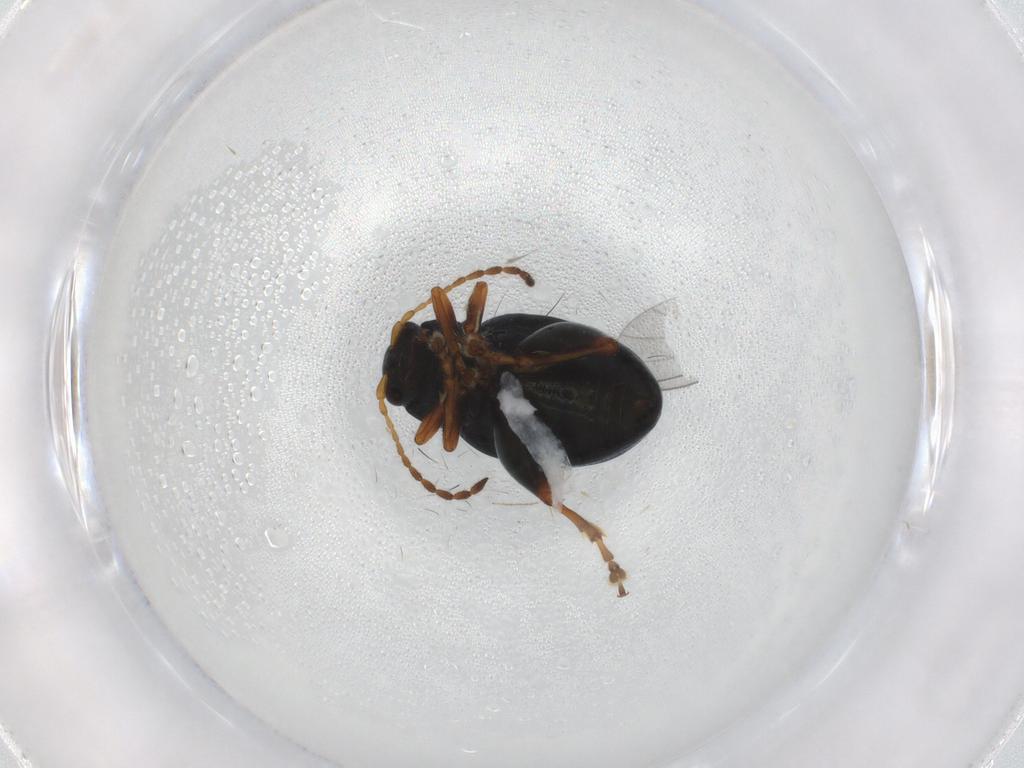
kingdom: Animalia
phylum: Arthropoda
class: Insecta
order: Coleoptera
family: Chrysomelidae
